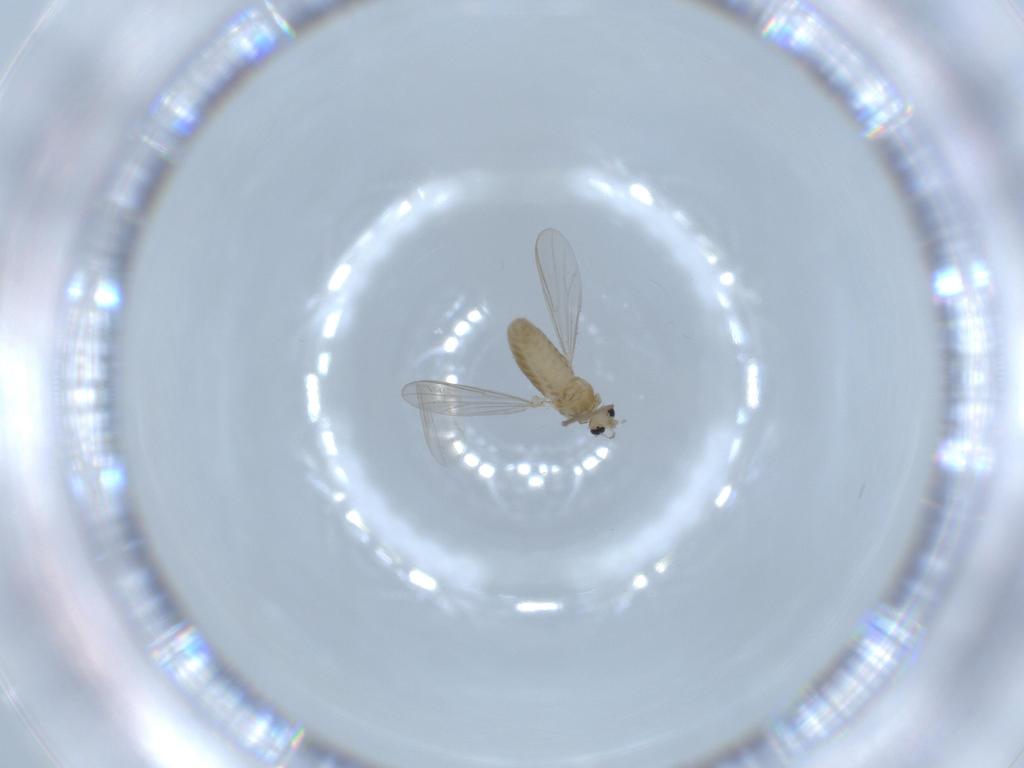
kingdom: Animalia
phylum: Arthropoda
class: Insecta
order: Diptera
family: Chironomidae
